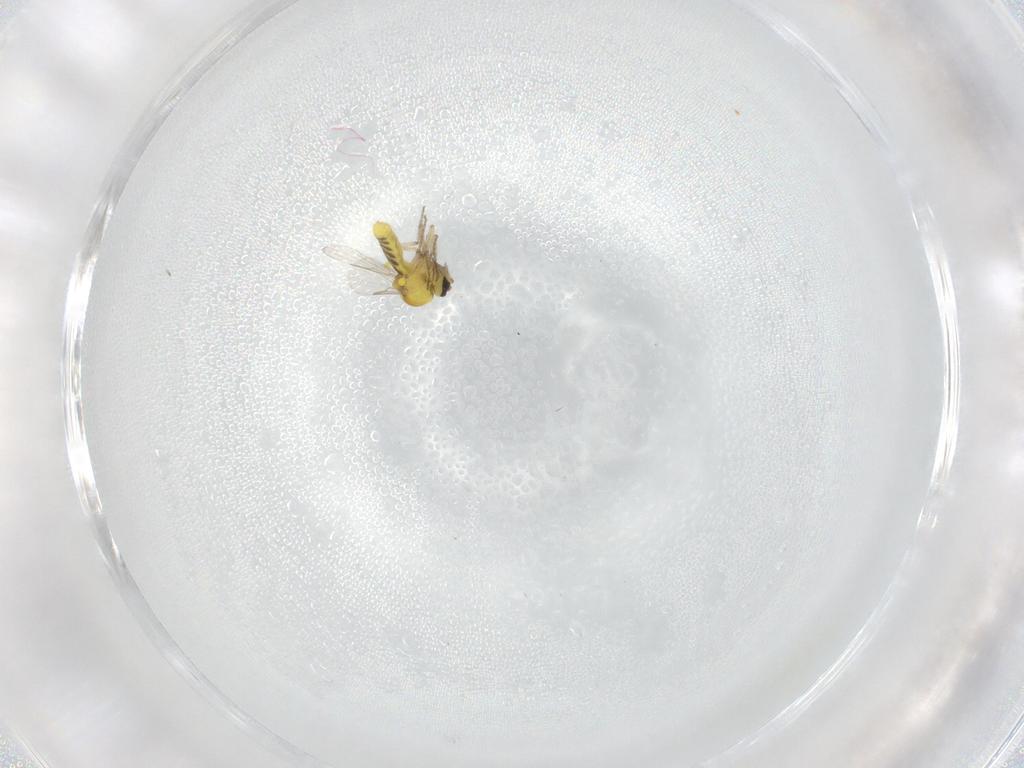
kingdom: Animalia
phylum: Arthropoda
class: Insecta
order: Diptera
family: Ceratopogonidae
